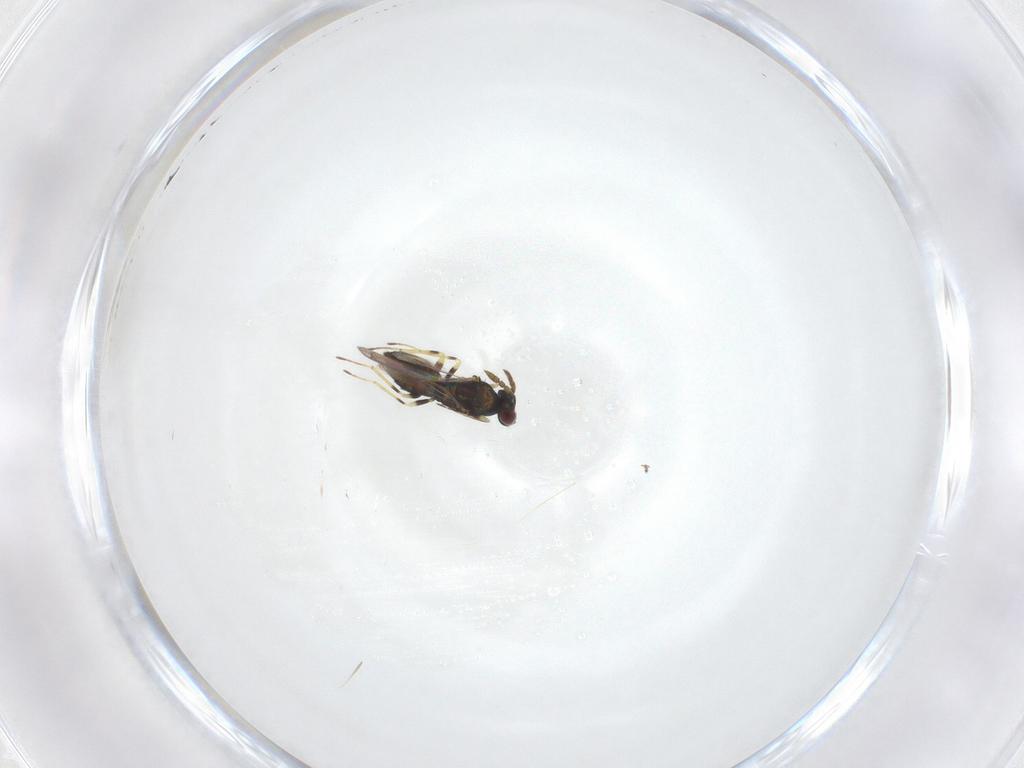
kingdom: Animalia
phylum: Arthropoda
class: Insecta
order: Hymenoptera
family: Eulophidae
